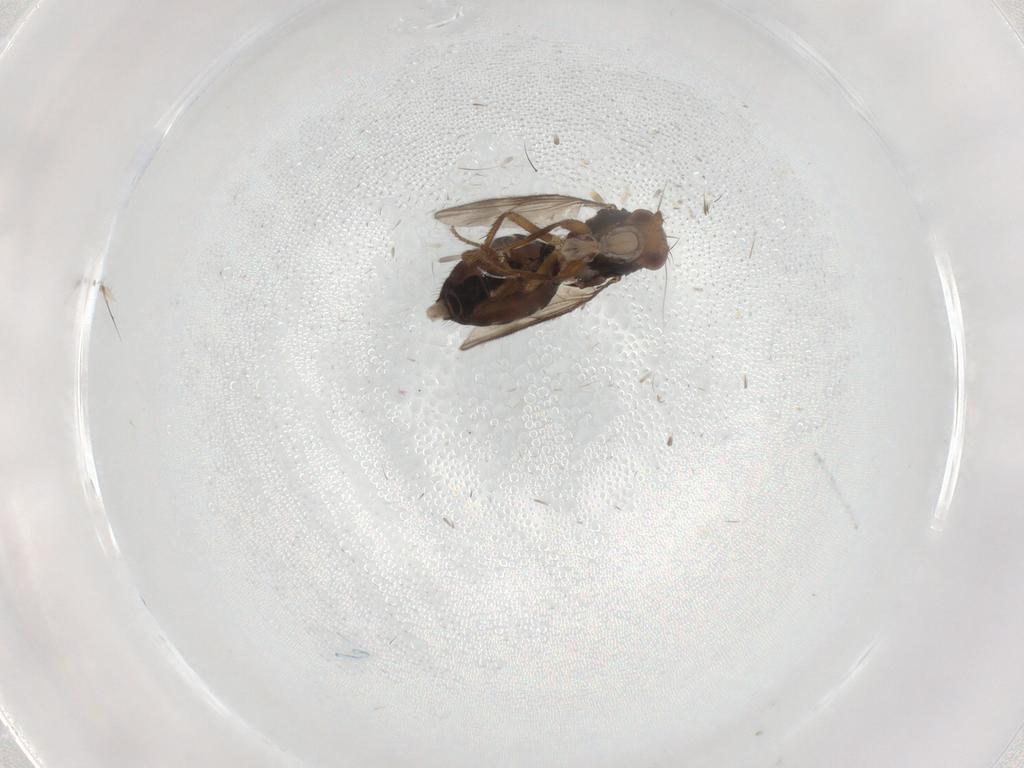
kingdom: Animalia
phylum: Arthropoda
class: Insecta
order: Diptera
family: Sphaeroceridae
